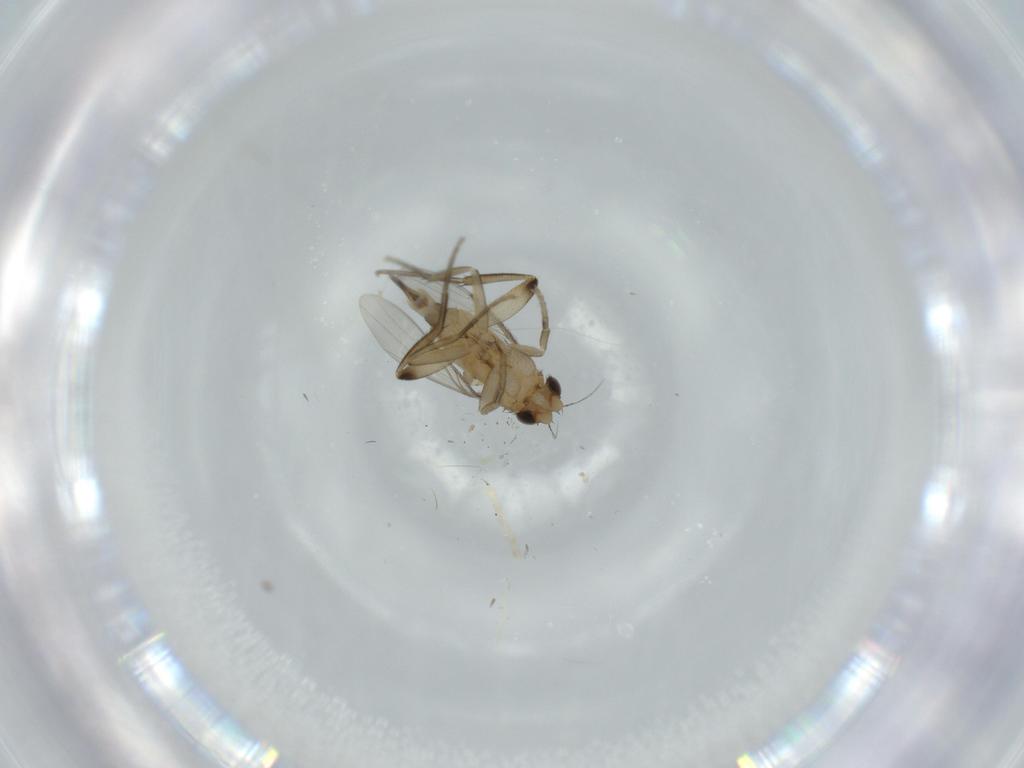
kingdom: Animalia
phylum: Arthropoda
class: Insecta
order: Diptera
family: Phoridae
